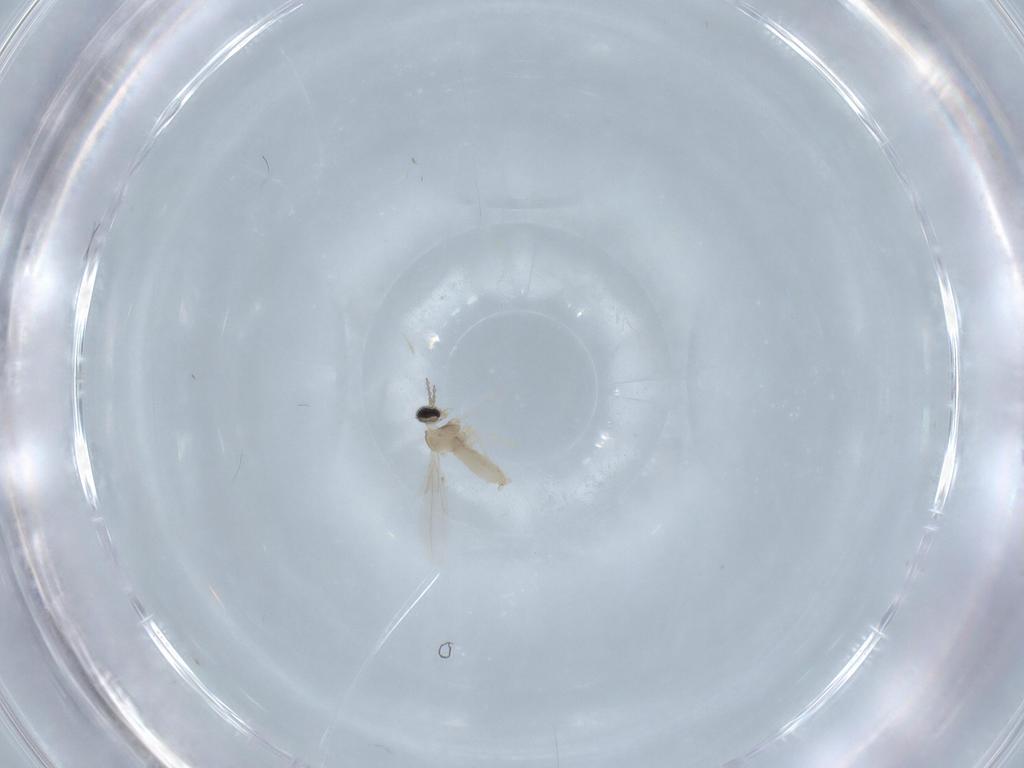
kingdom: Animalia
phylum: Arthropoda
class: Insecta
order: Diptera
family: Cecidomyiidae
